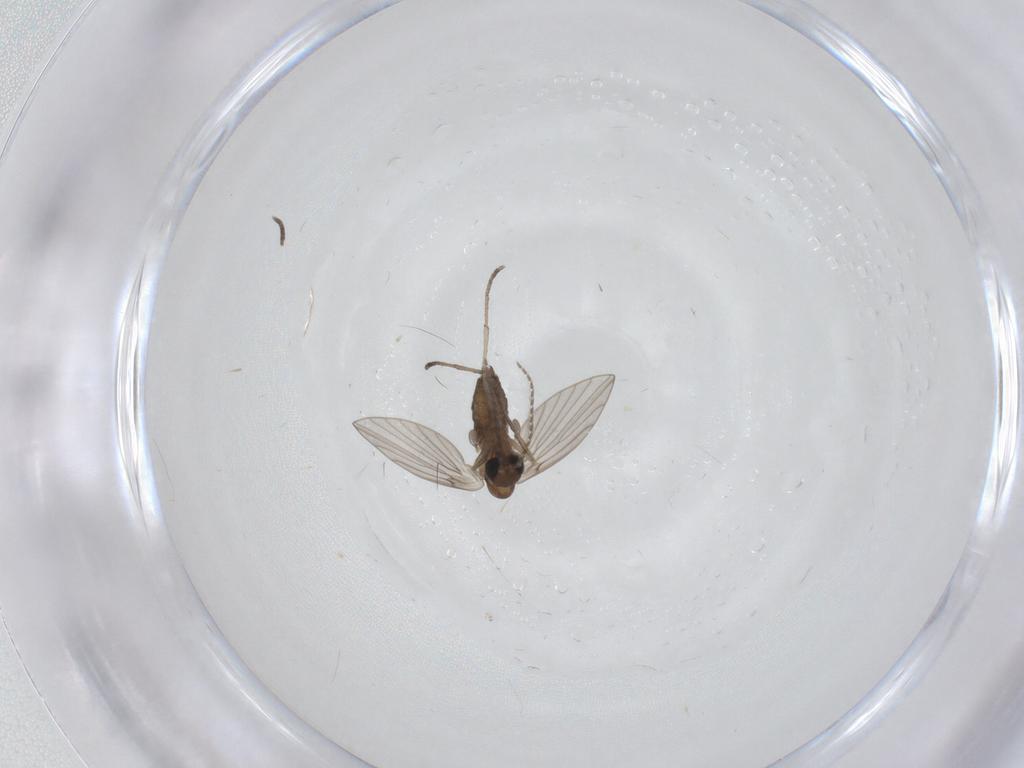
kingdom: Animalia
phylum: Arthropoda
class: Insecta
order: Diptera
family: Psychodidae
